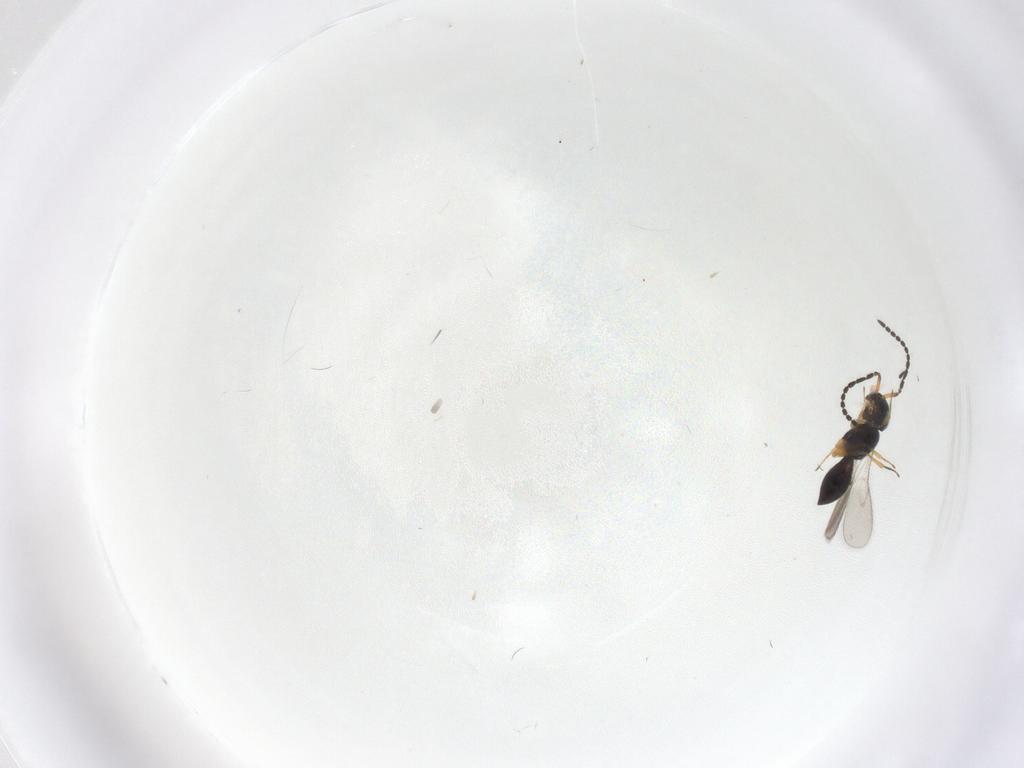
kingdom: Animalia
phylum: Arthropoda
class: Insecta
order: Hymenoptera
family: Scelionidae
